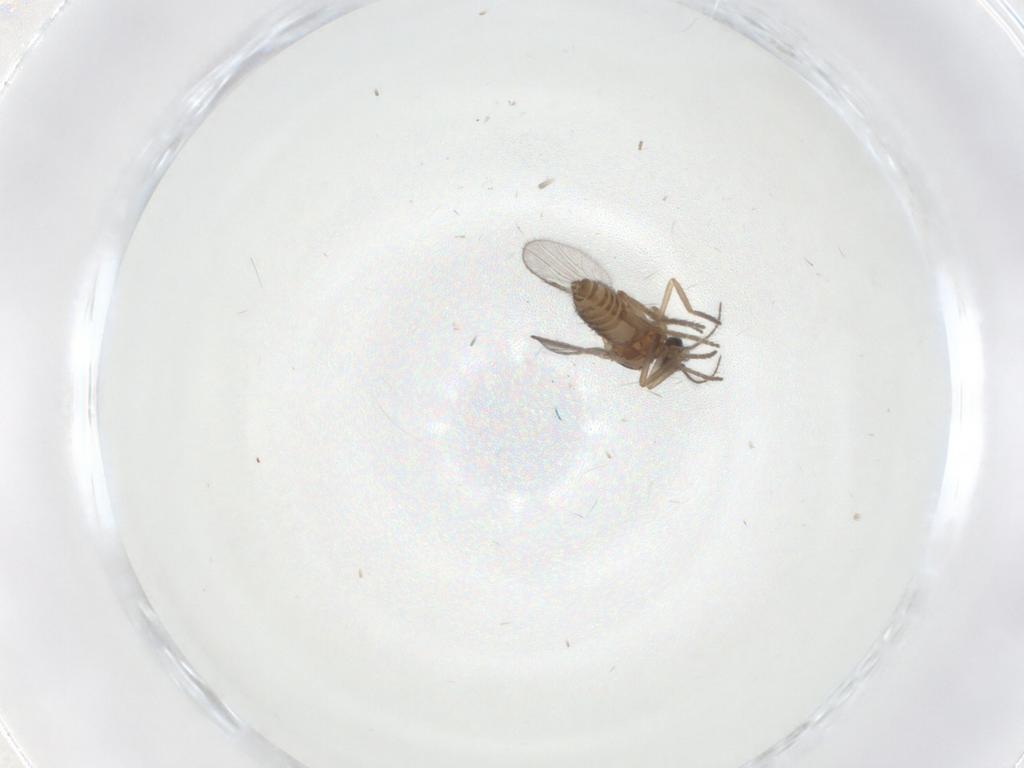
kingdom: Animalia
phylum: Arthropoda
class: Insecta
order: Diptera
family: Ceratopogonidae
